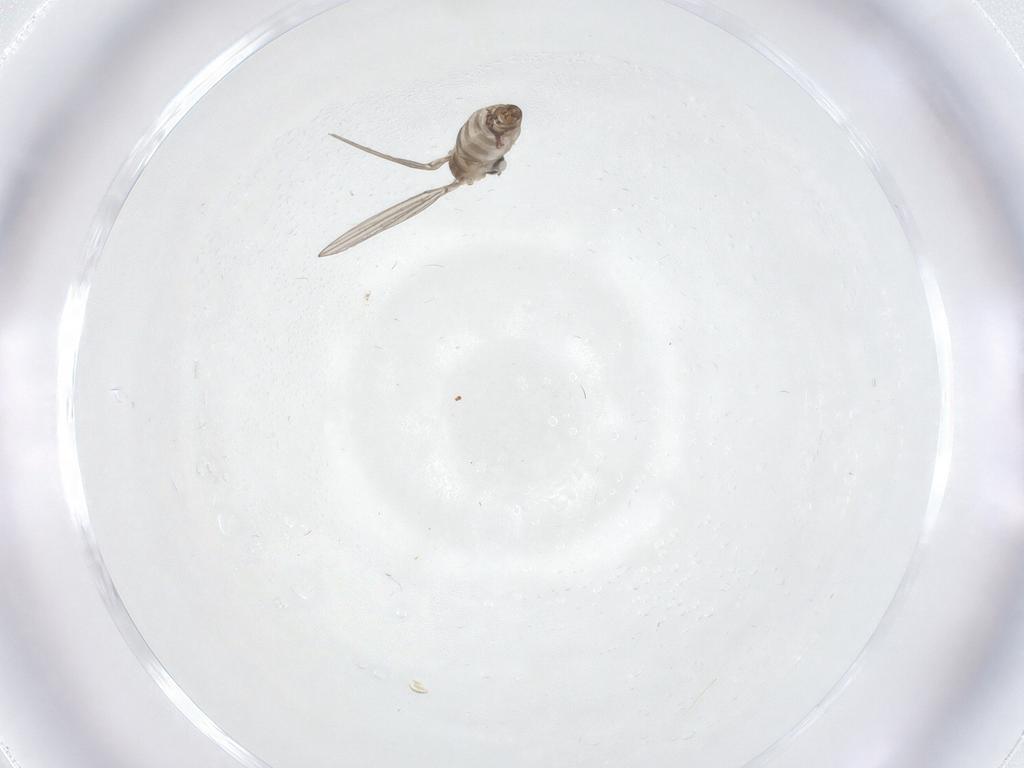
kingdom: Animalia
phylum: Arthropoda
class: Insecta
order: Diptera
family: Psychodidae
